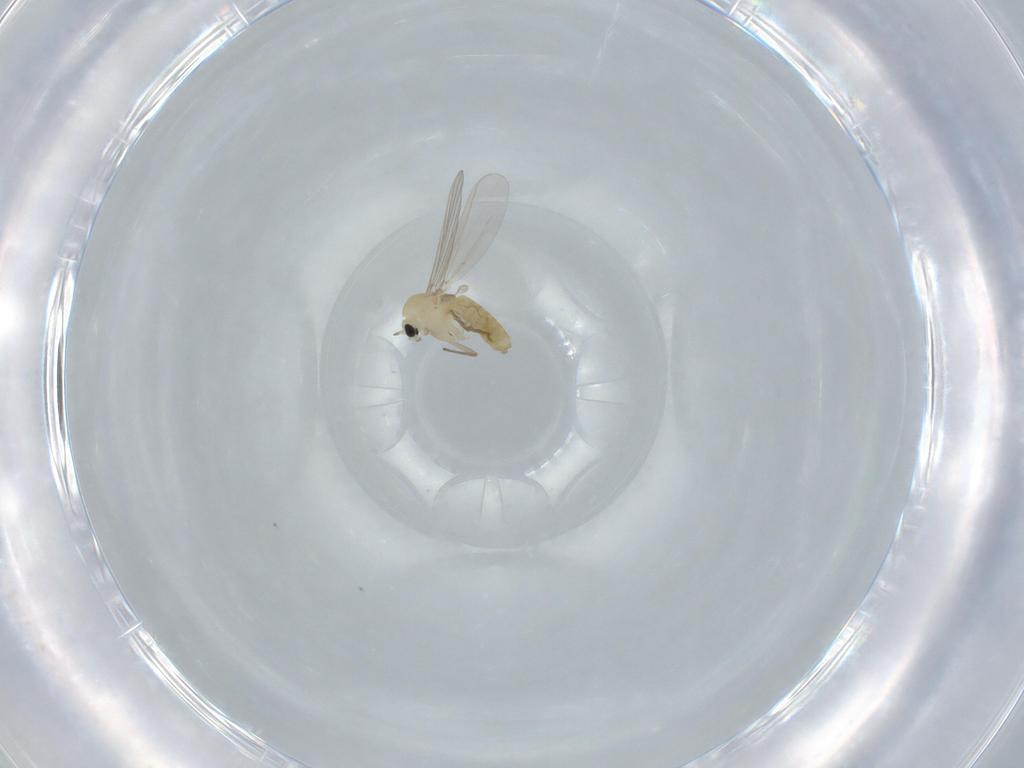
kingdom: Animalia
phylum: Arthropoda
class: Insecta
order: Diptera
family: Chironomidae
